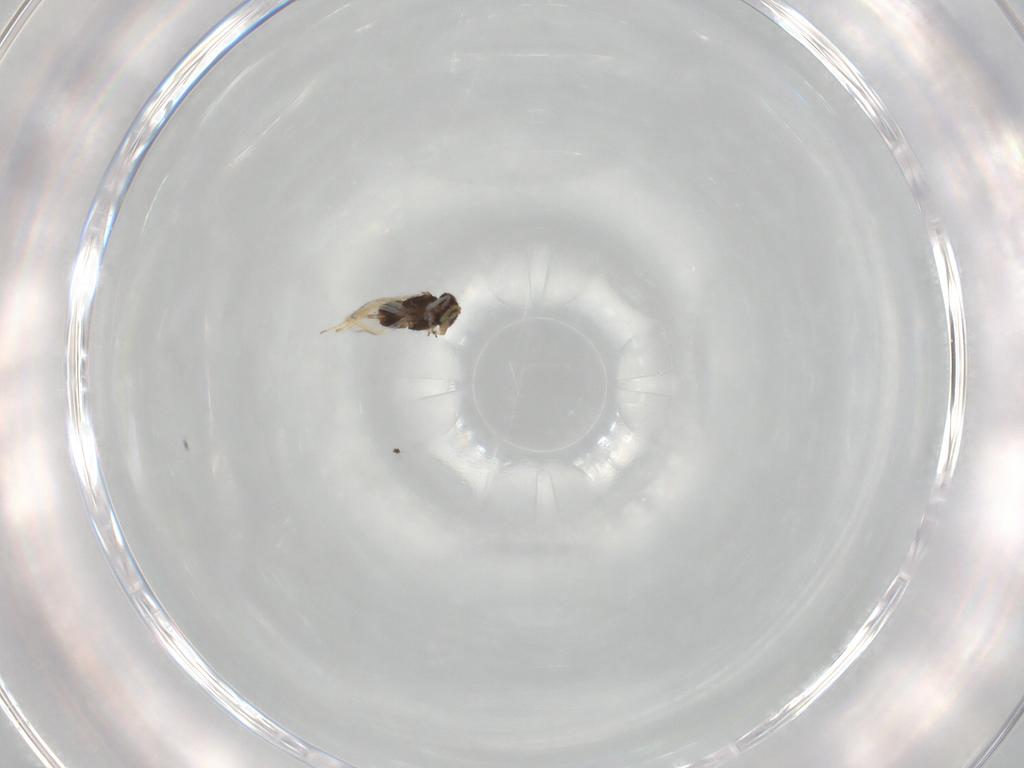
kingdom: Animalia
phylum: Arthropoda
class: Insecta
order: Hymenoptera
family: Aphelinidae
